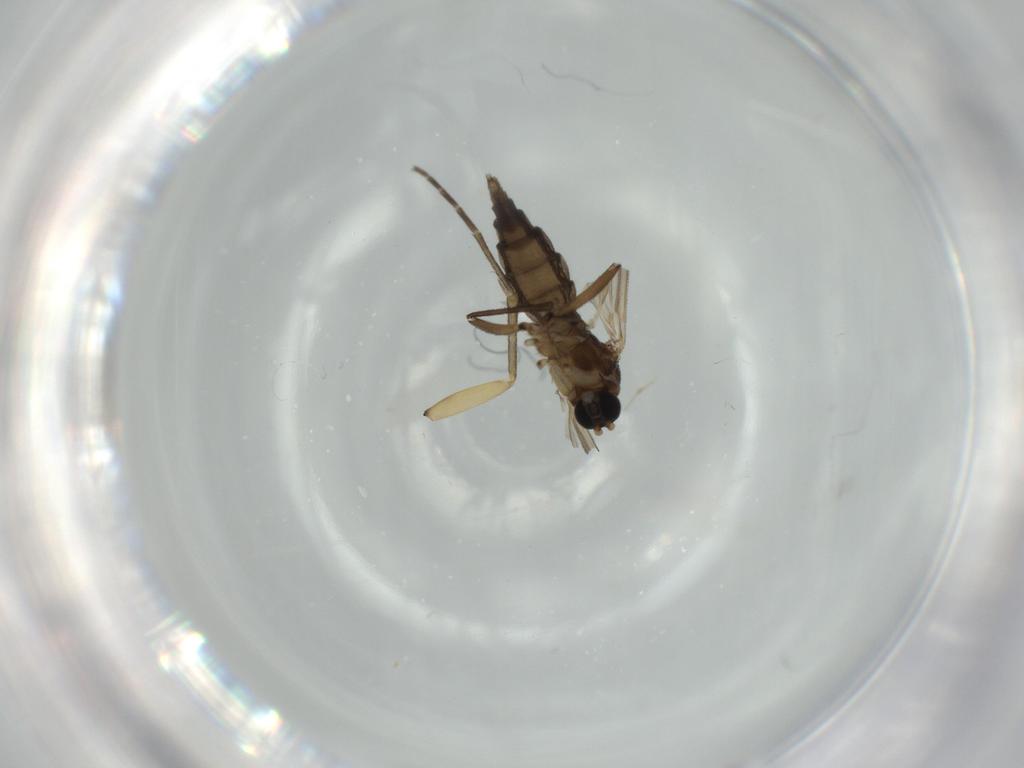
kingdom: Animalia
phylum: Arthropoda
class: Insecta
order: Diptera
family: Mycetophilidae
